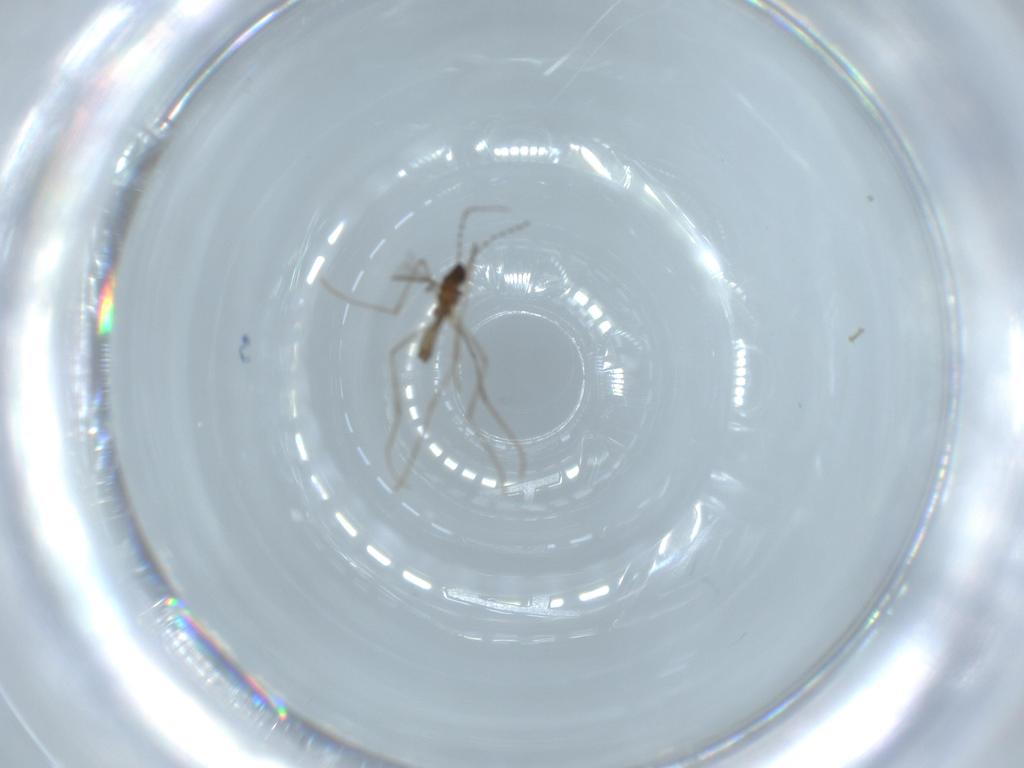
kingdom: Animalia
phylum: Arthropoda
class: Insecta
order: Diptera
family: Cecidomyiidae
